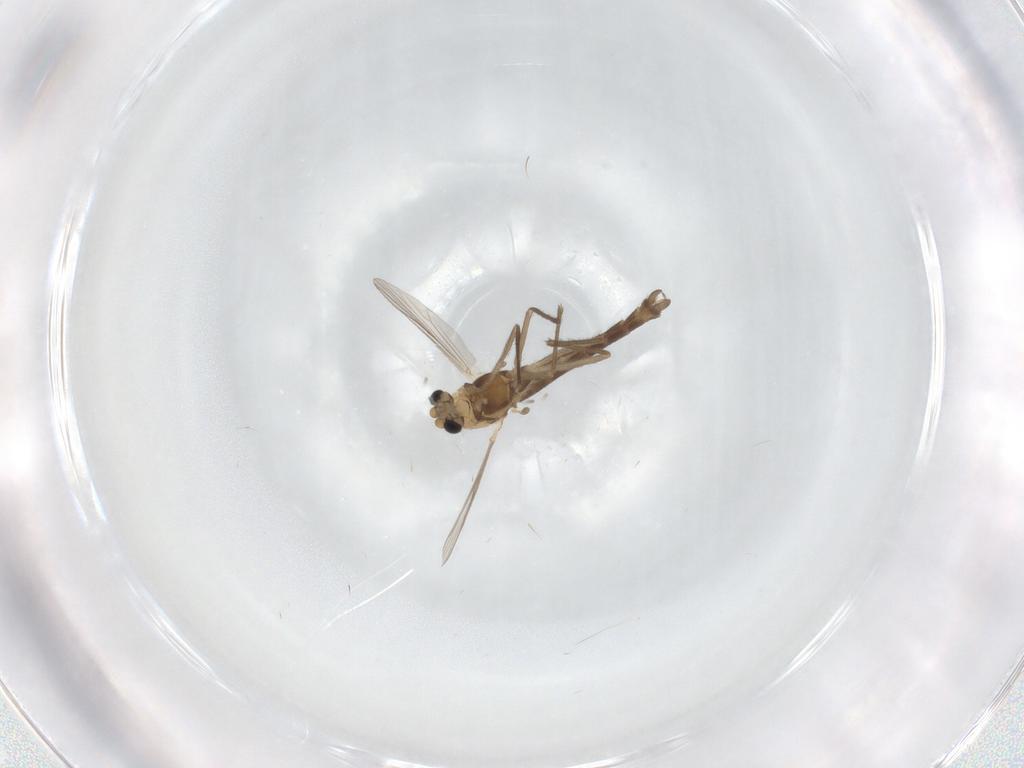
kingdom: Animalia
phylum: Arthropoda
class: Insecta
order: Diptera
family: Chironomidae
